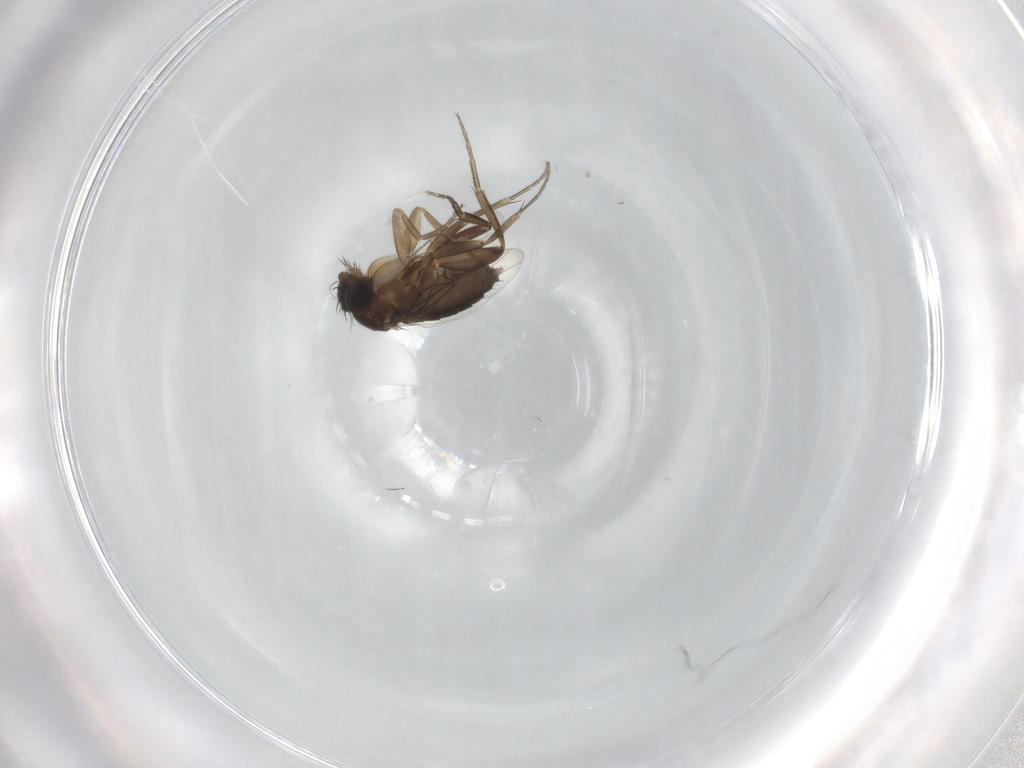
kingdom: Animalia
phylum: Arthropoda
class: Insecta
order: Diptera
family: Phoridae
